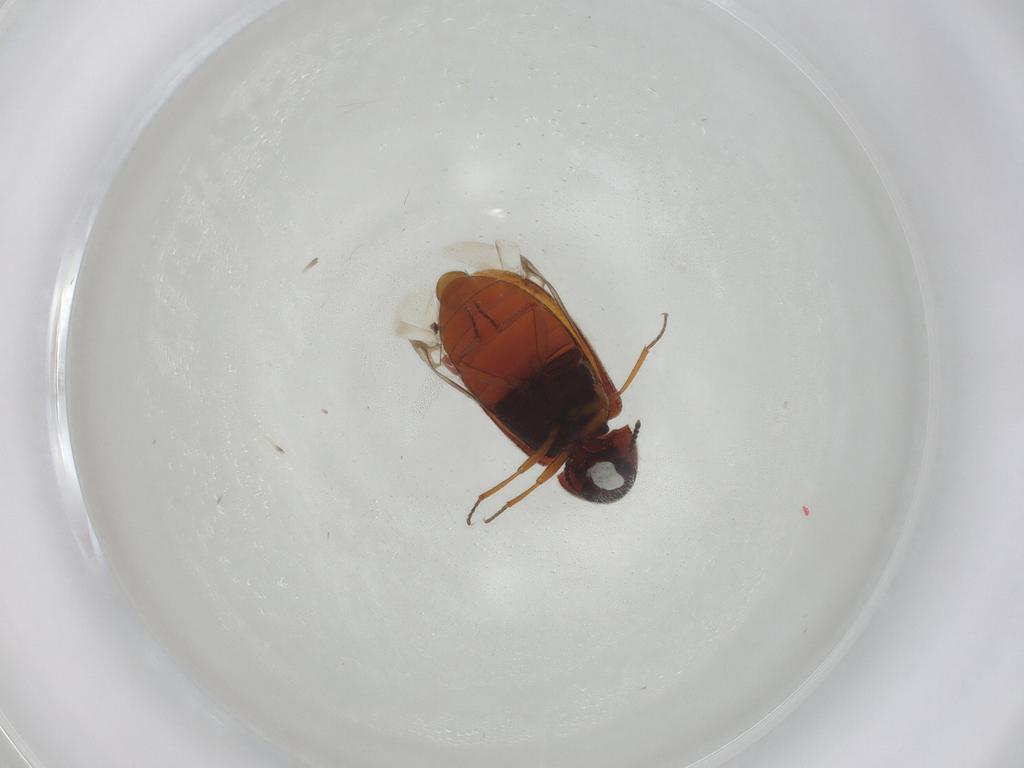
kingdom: Animalia
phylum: Arthropoda
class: Insecta
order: Coleoptera
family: Rhadalidae
